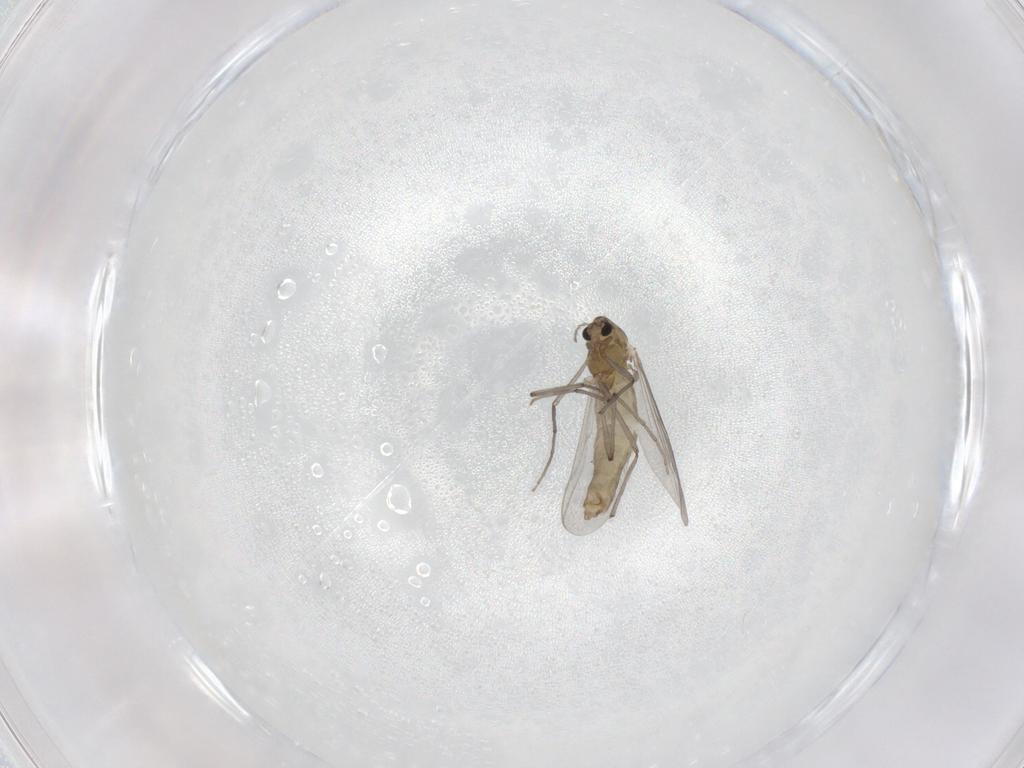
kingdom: Animalia
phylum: Arthropoda
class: Insecta
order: Diptera
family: Chironomidae
